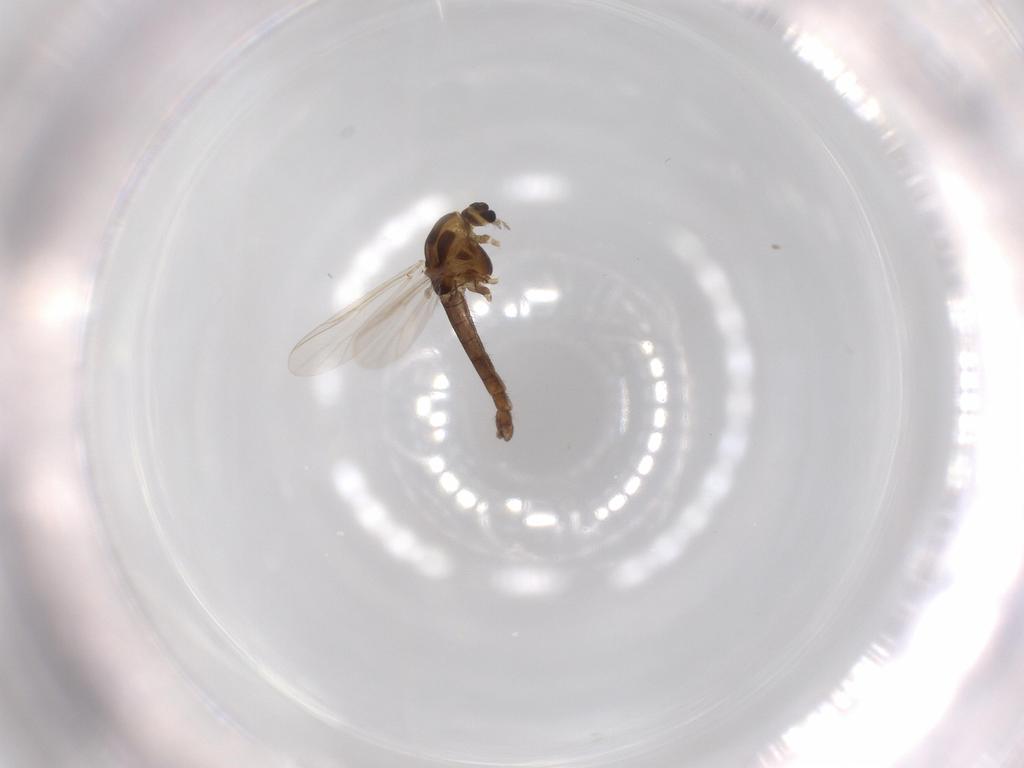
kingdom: Animalia
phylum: Arthropoda
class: Insecta
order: Diptera
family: Chironomidae
